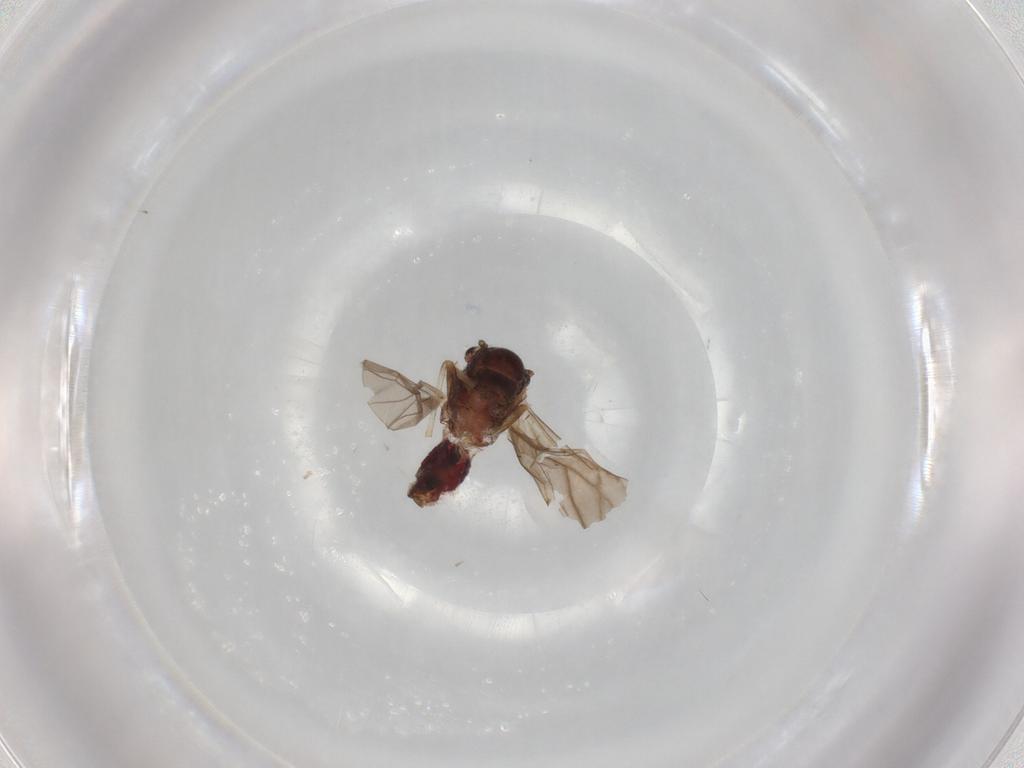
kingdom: Animalia
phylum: Arthropoda
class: Insecta
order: Psocodea
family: Caeciliusidae
